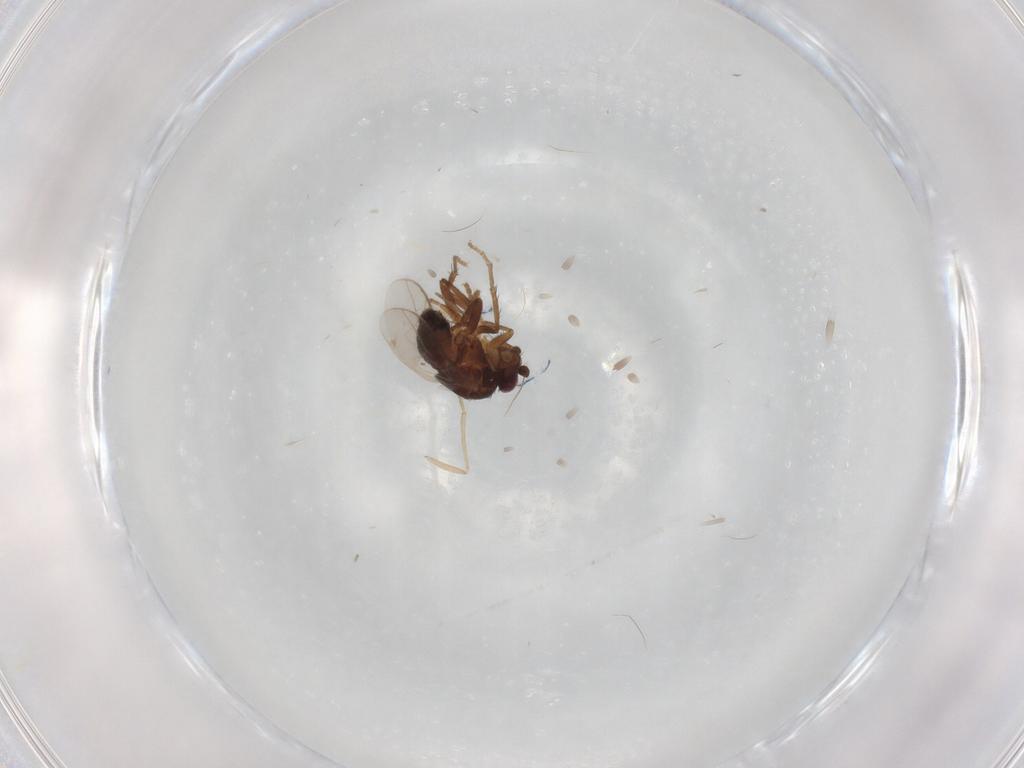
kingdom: Animalia
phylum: Arthropoda
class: Insecta
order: Diptera
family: Sphaeroceridae
